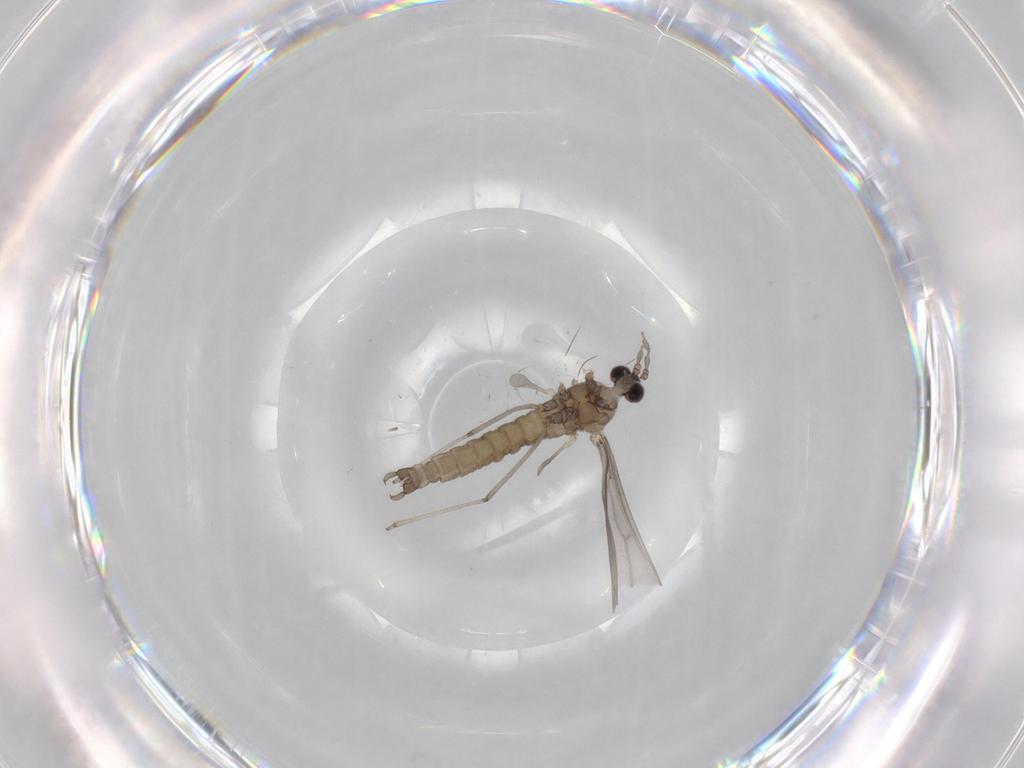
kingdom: Animalia
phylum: Arthropoda
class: Insecta
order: Diptera
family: Cecidomyiidae
